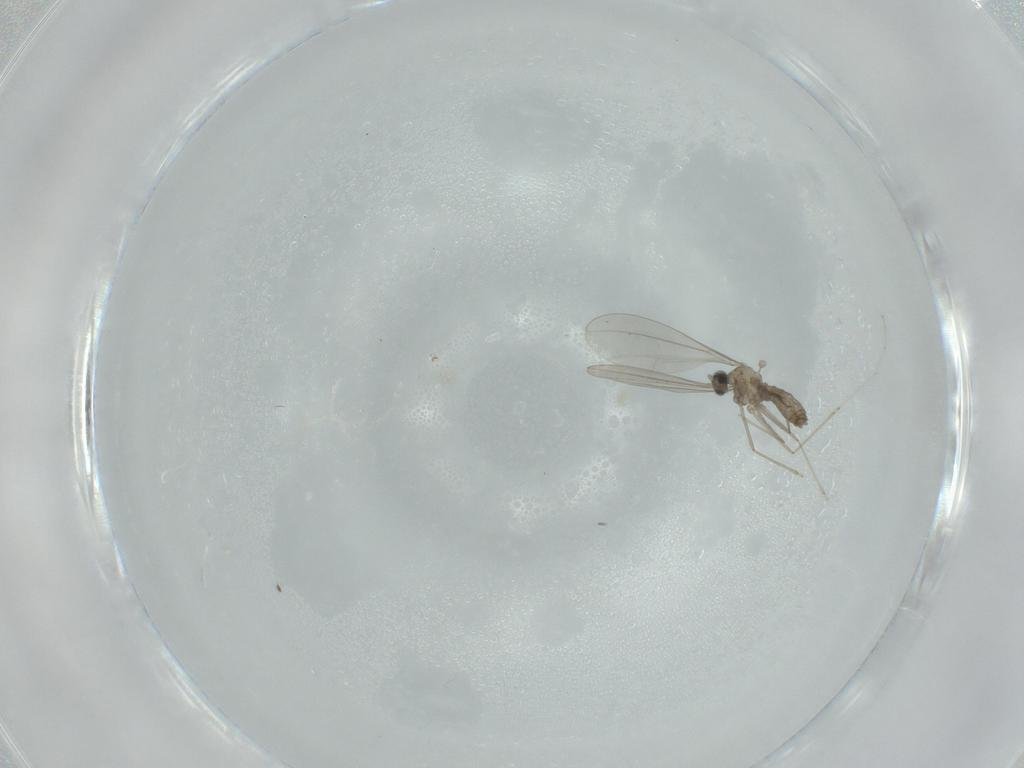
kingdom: Animalia
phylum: Arthropoda
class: Insecta
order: Diptera
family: Cecidomyiidae
